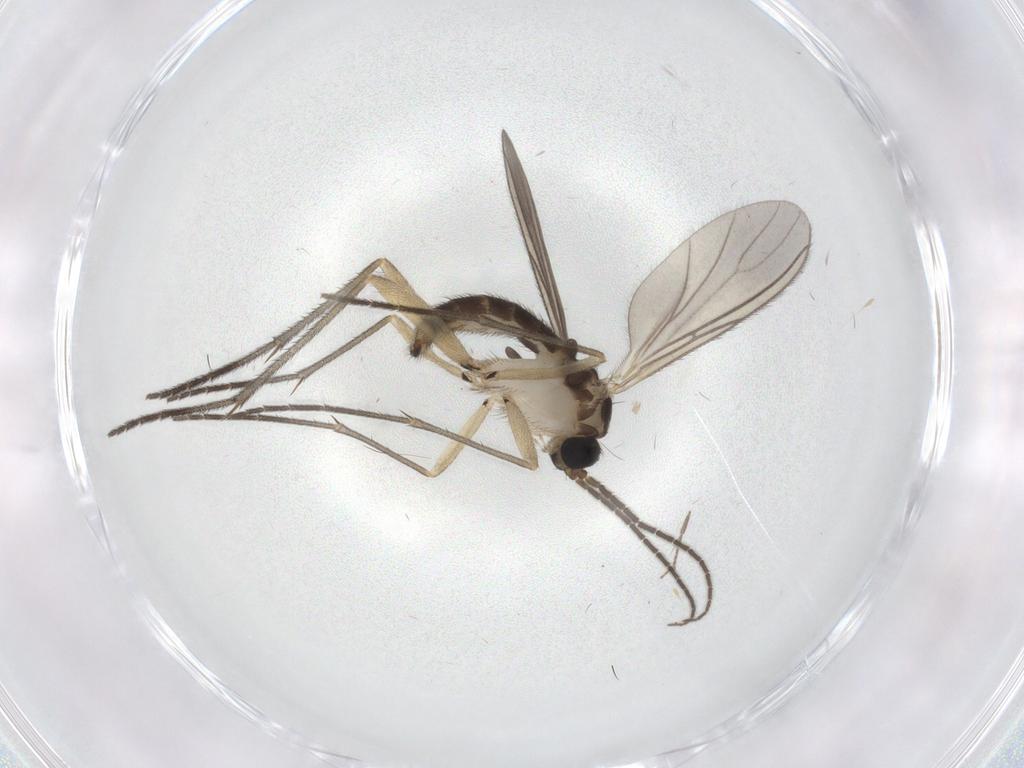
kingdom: Animalia
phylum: Arthropoda
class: Insecta
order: Diptera
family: Sciaridae
